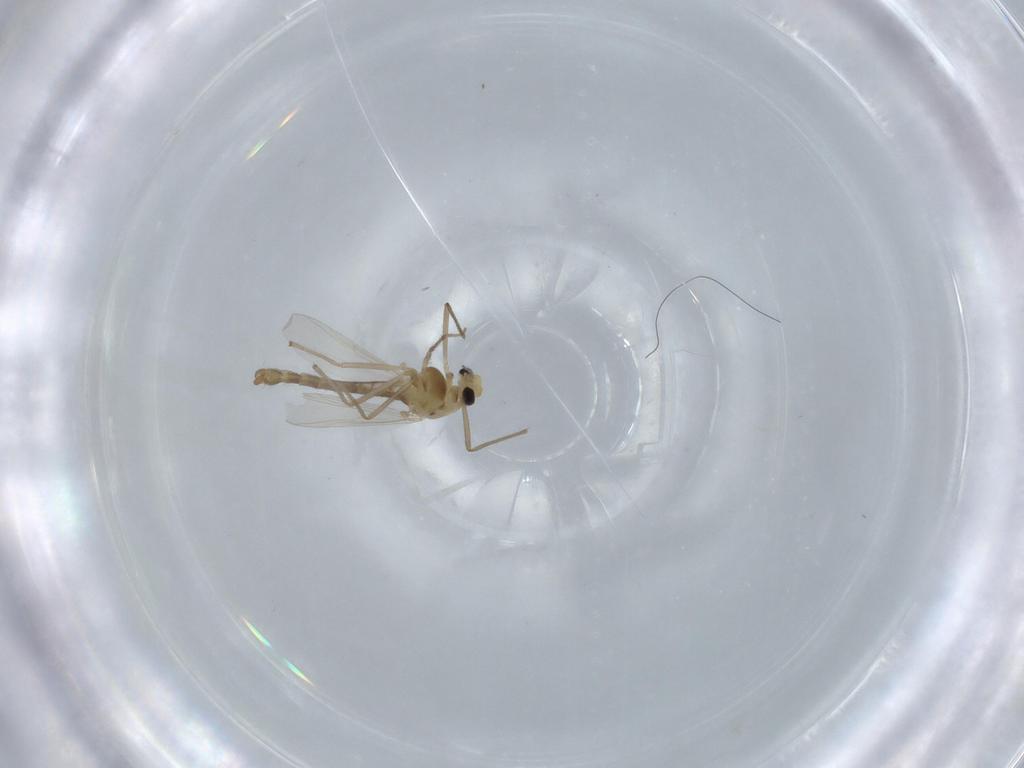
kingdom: Animalia
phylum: Arthropoda
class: Insecta
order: Diptera
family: Chironomidae
